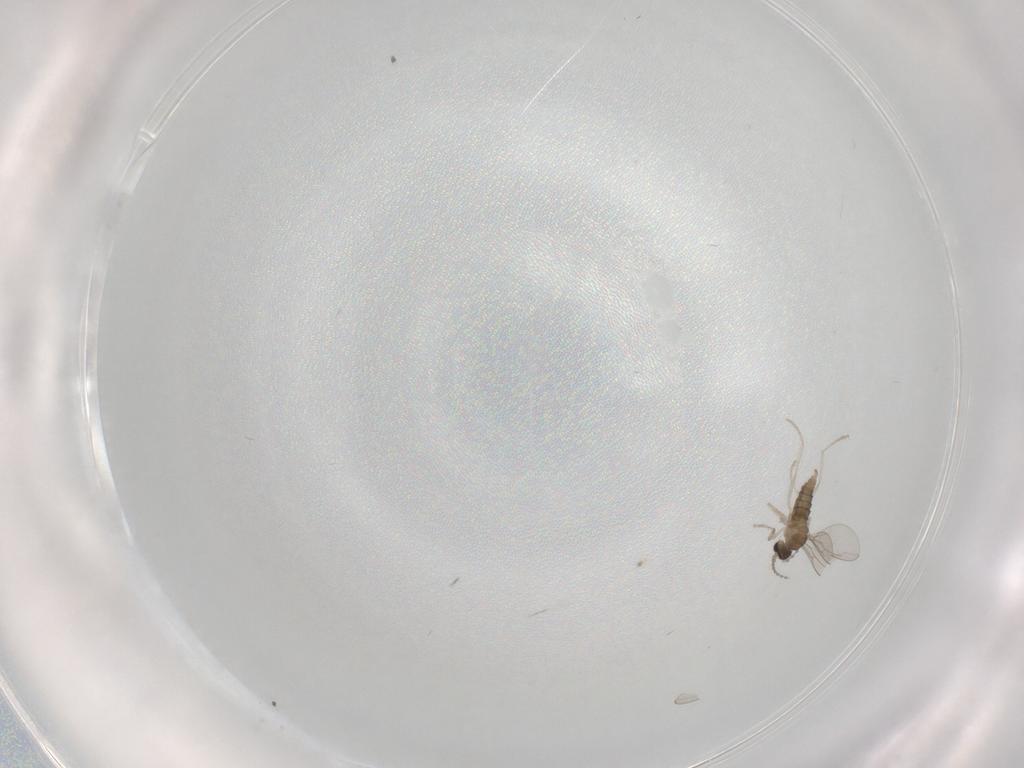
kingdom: Animalia
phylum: Arthropoda
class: Insecta
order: Diptera
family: Cecidomyiidae
